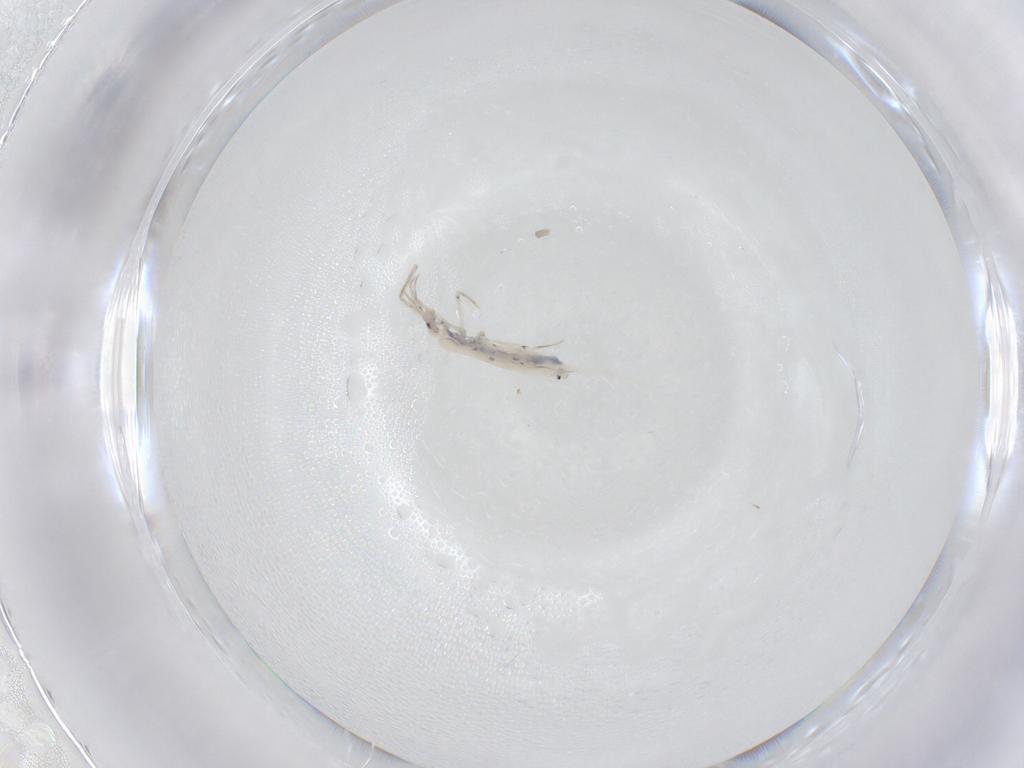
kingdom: Animalia
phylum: Arthropoda
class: Collembola
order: Entomobryomorpha
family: Entomobryidae
